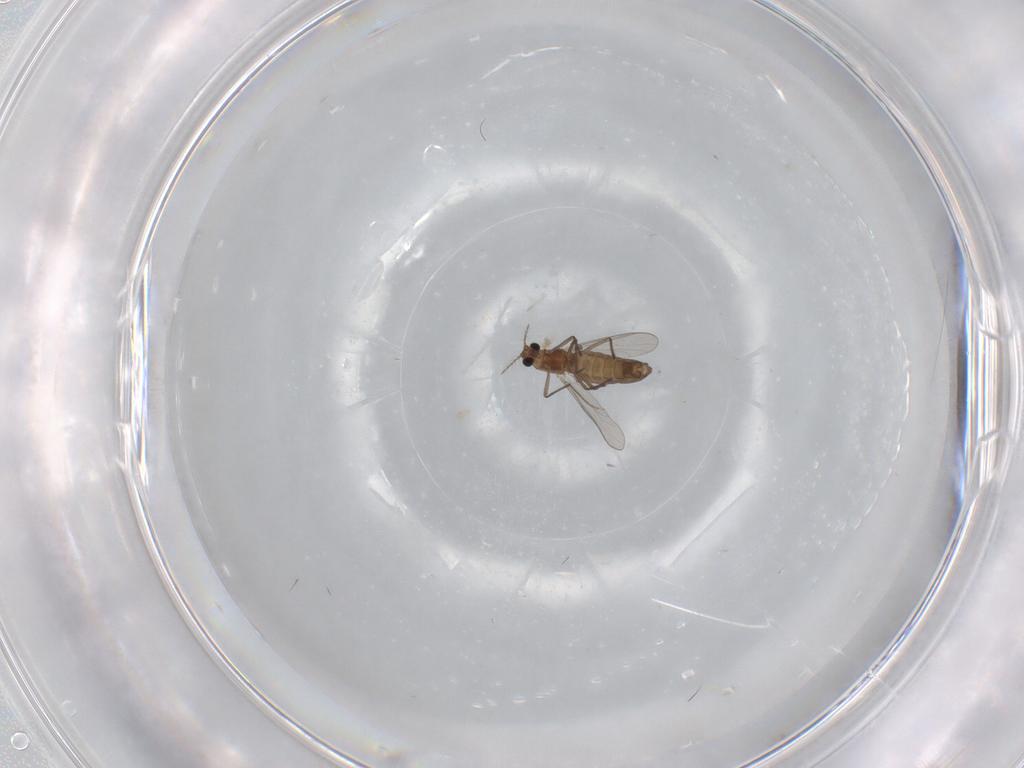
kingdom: Animalia
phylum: Arthropoda
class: Insecta
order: Diptera
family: Chironomidae
